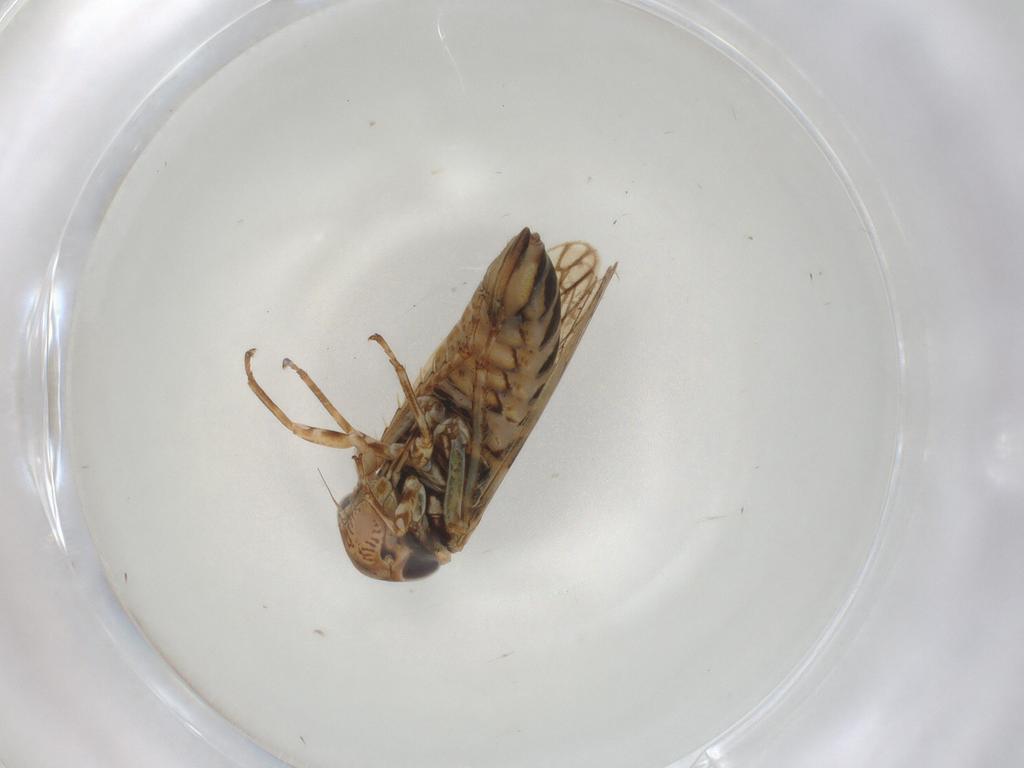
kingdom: Animalia
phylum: Arthropoda
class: Insecta
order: Hemiptera
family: Cicadellidae
